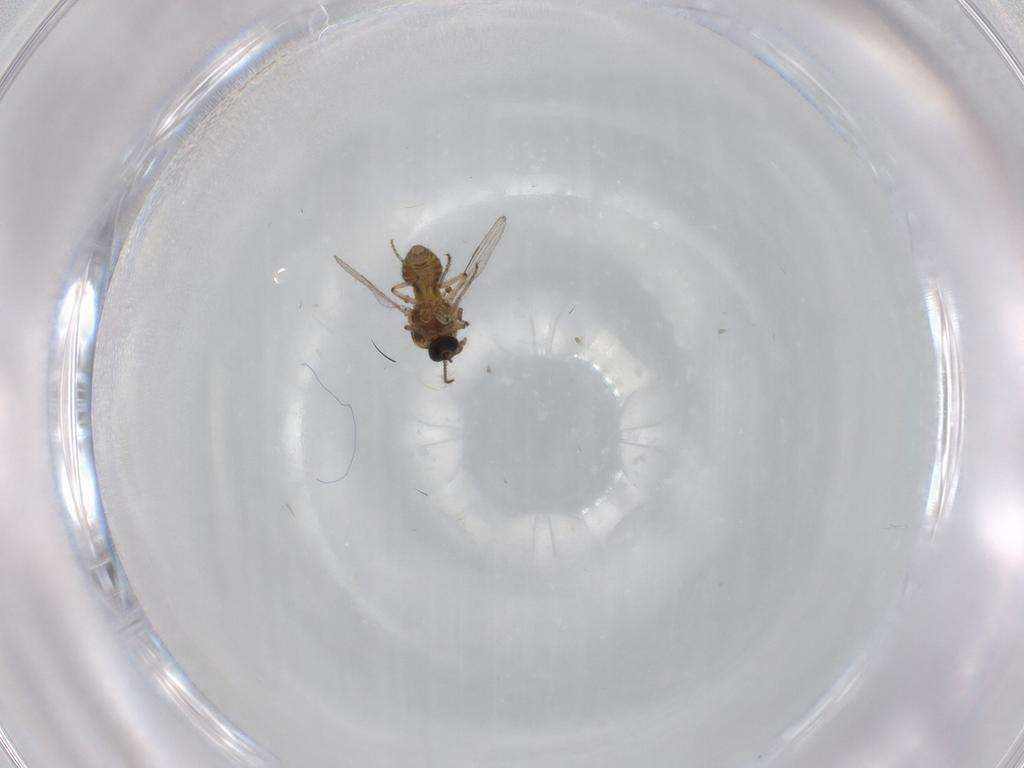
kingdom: Animalia
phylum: Arthropoda
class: Insecta
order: Diptera
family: Ceratopogonidae
